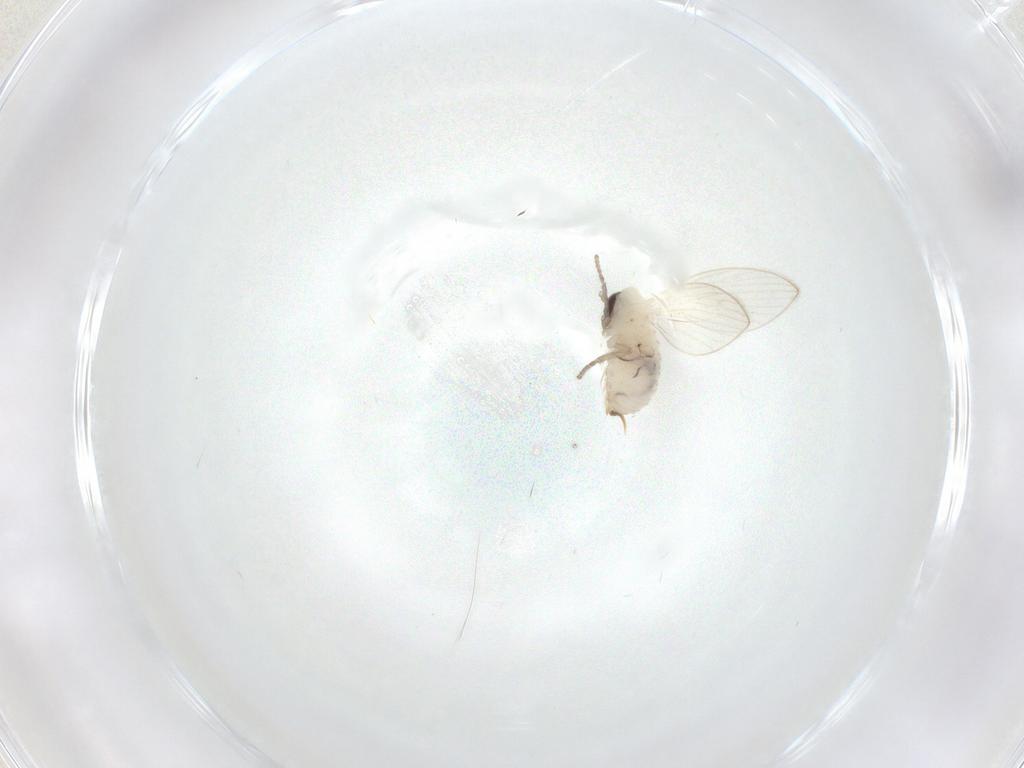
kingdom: Animalia
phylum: Arthropoda
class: Insecta
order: Diptera
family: Psychodidae
